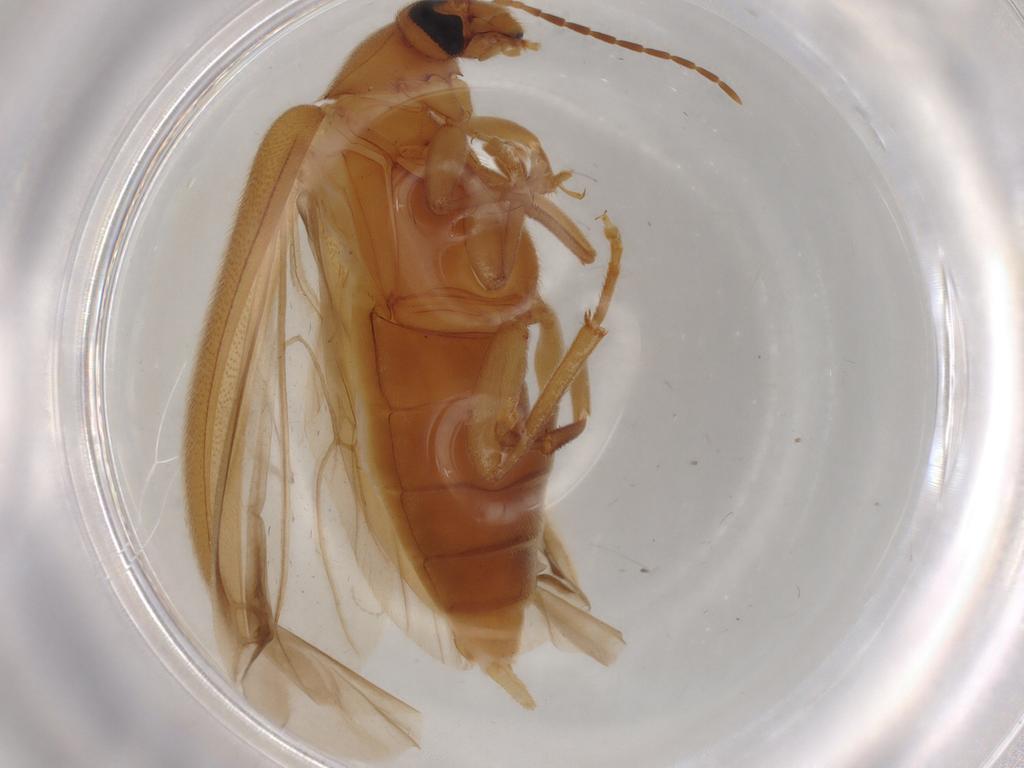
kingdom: Animalia
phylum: Arthropoda
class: Insecta
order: Coleoptera
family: Scraptiidae
